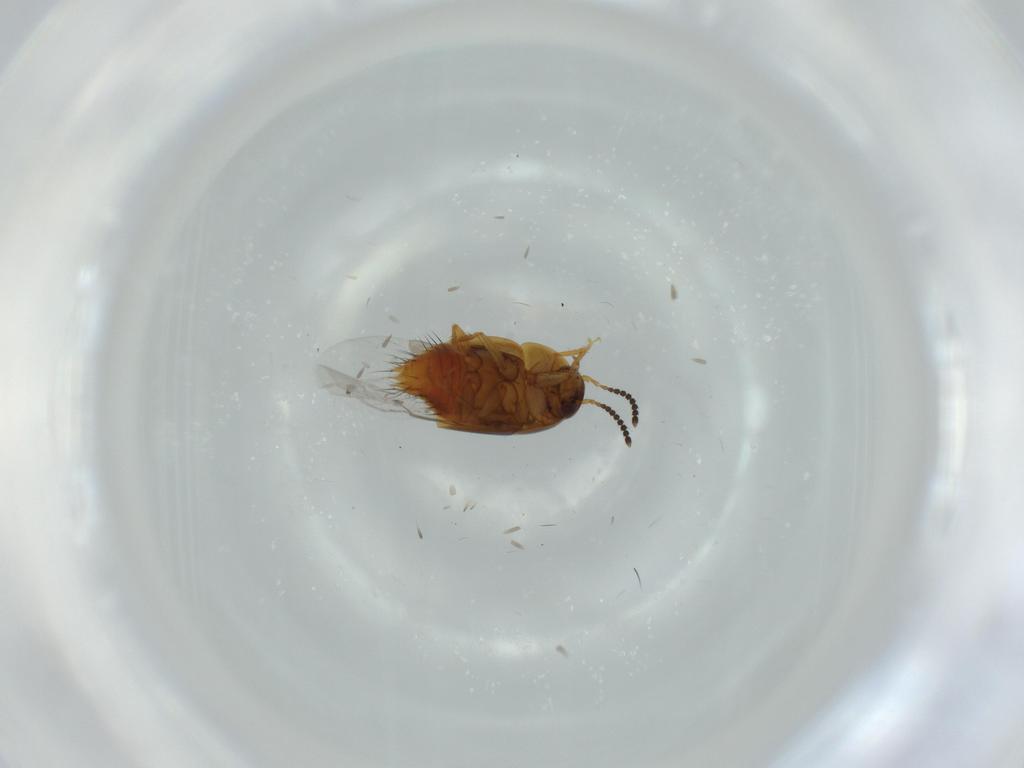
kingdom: Animalia
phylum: Arthropoda
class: Insecta
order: Coleoptera
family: Staphylinidae
